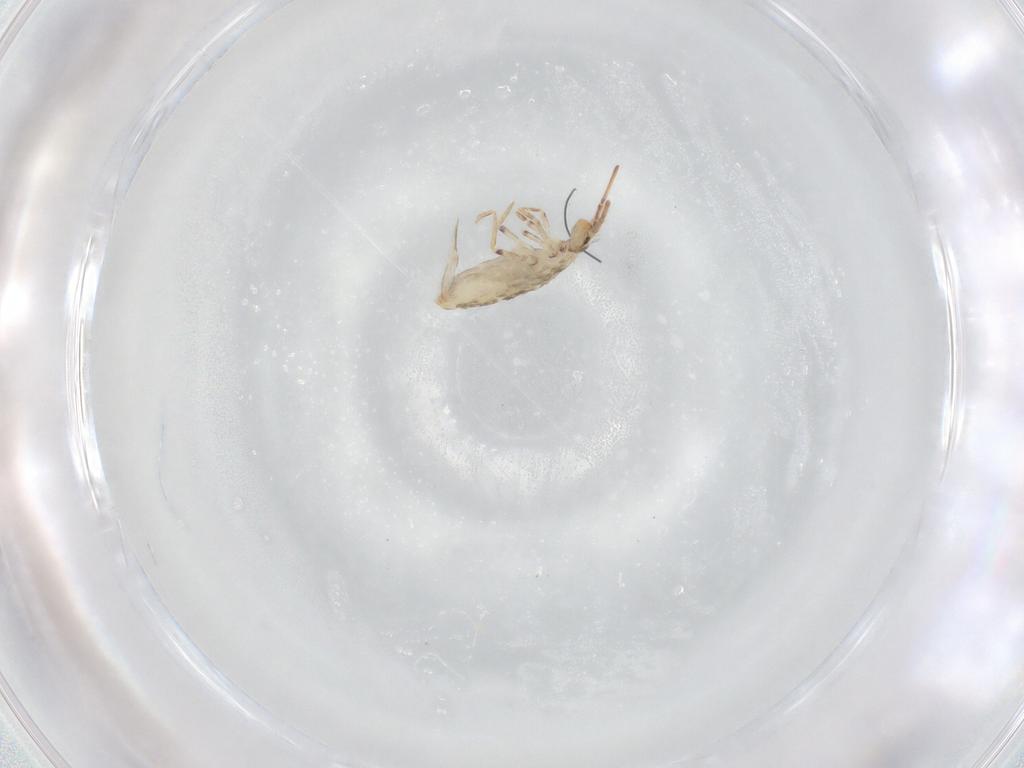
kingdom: Animalia
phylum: Arthropoda
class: Collembola
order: Entomobryomorpha
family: Entomobryidae
